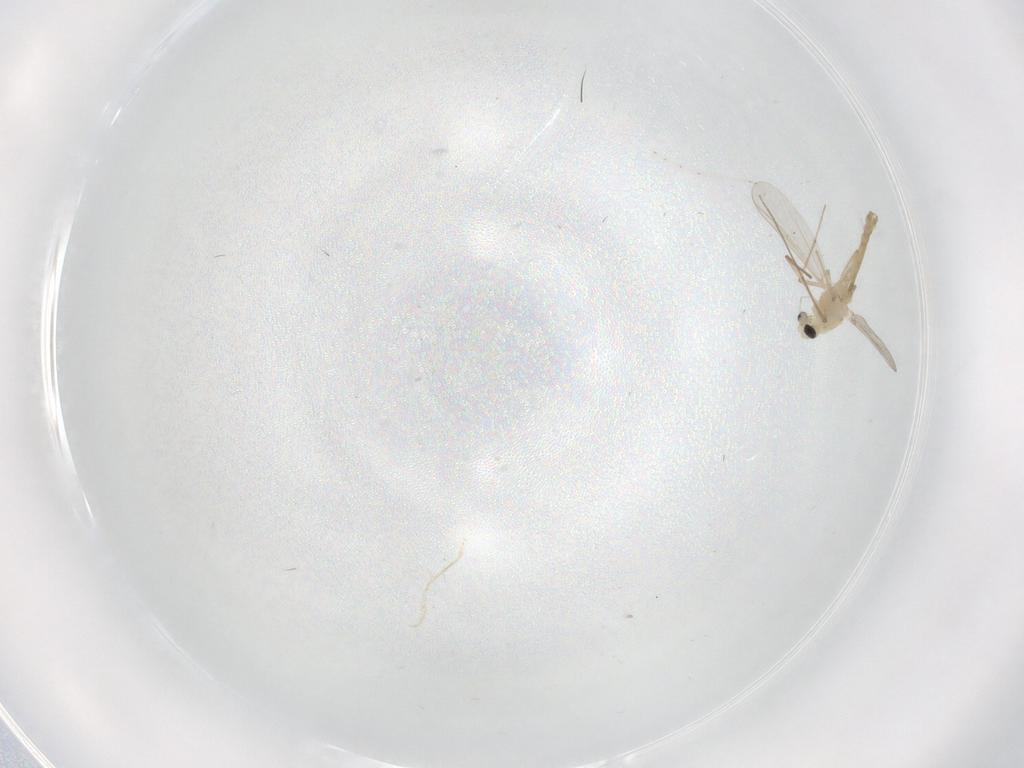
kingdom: Animalia
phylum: Arthropoda
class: Insecta
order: Diptera
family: Chironomidae
